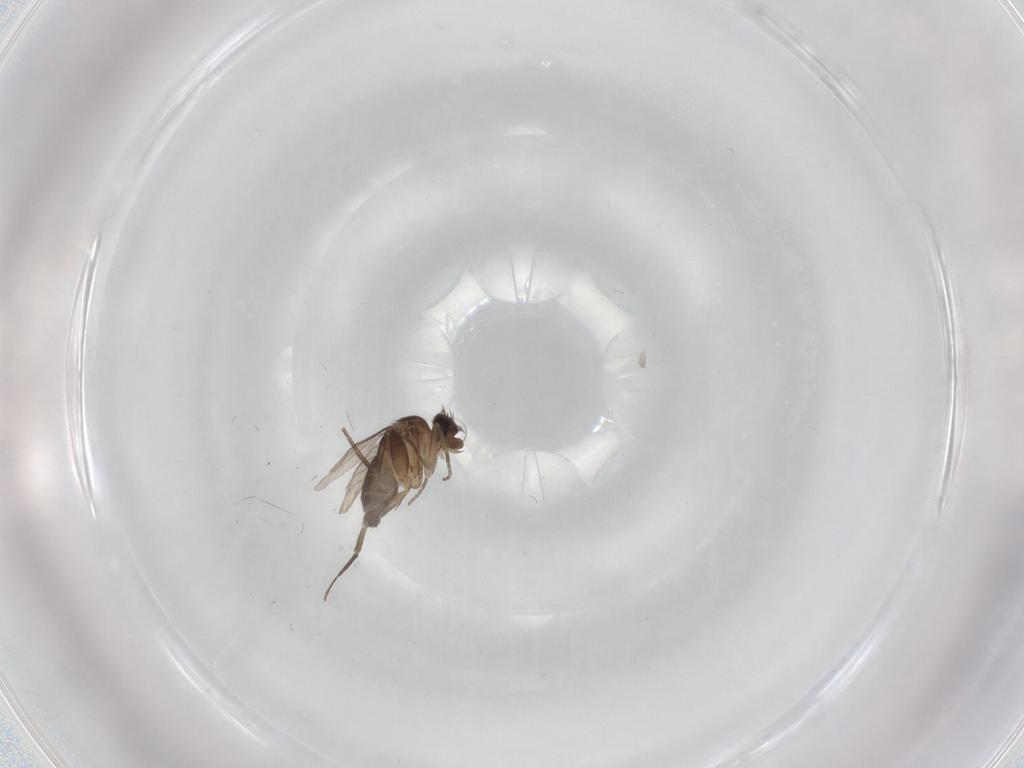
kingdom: Animalia
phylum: Arthropoda
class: Insecta
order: Diptera
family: Phoridae
